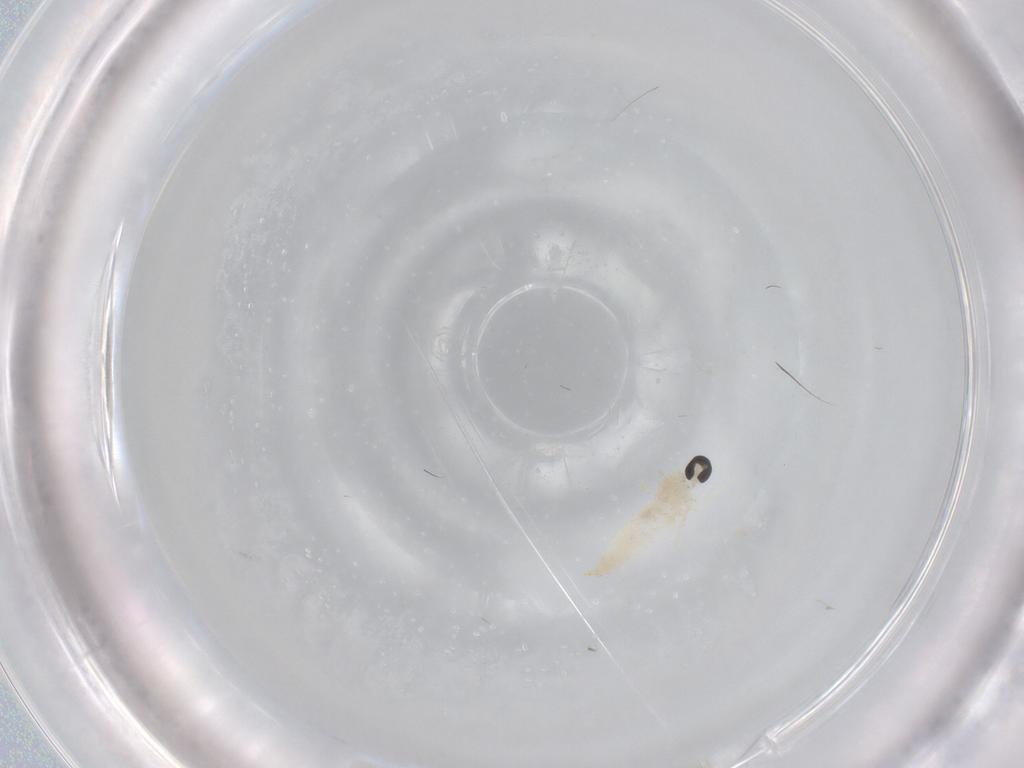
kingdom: Animalia
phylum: Arthropoda
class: Insecta
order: Diptera
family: Cecidomyiidae
